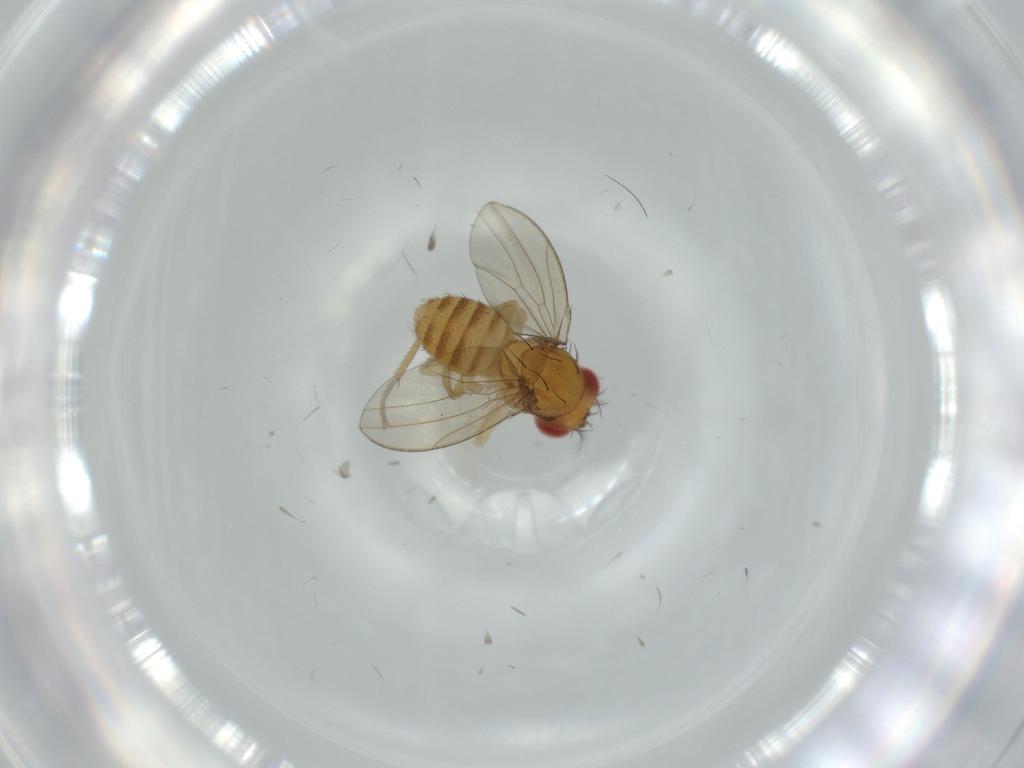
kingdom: Animalia
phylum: Arthropoda
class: Insecta
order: Diptera
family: Drosophilidae
